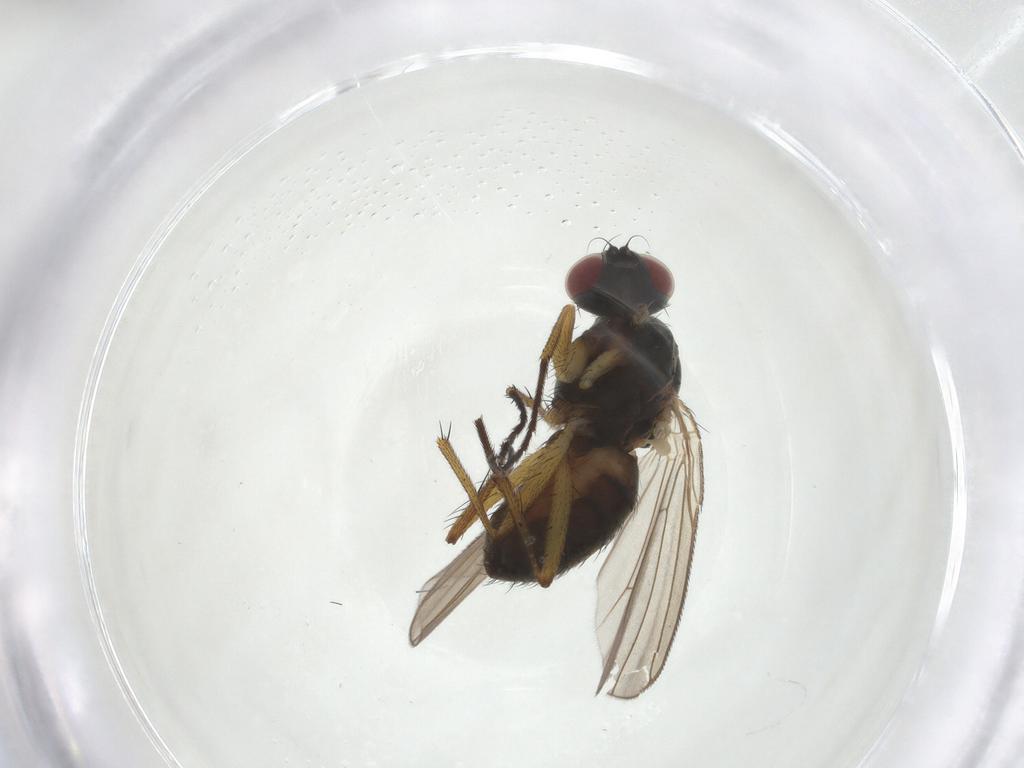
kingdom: Animalia
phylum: Arthropoda
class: Insecta
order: Diptera
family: Muscidae
